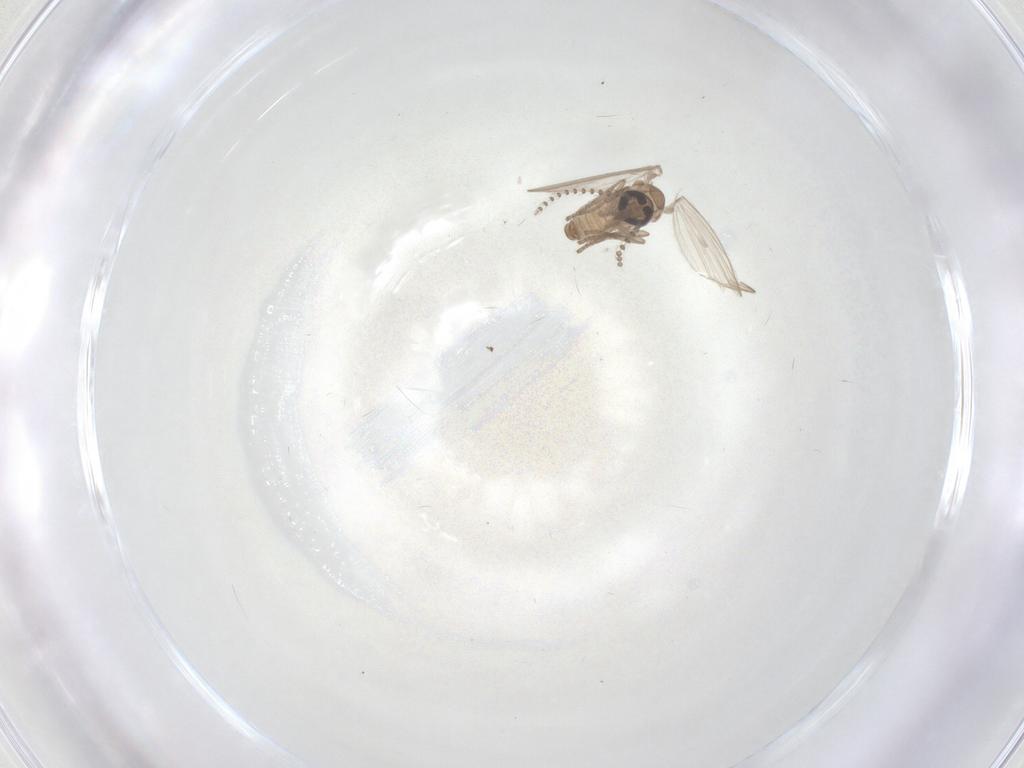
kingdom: Animalia
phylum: Arthropoda
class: Insecta
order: Diptera
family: Psychodidae
